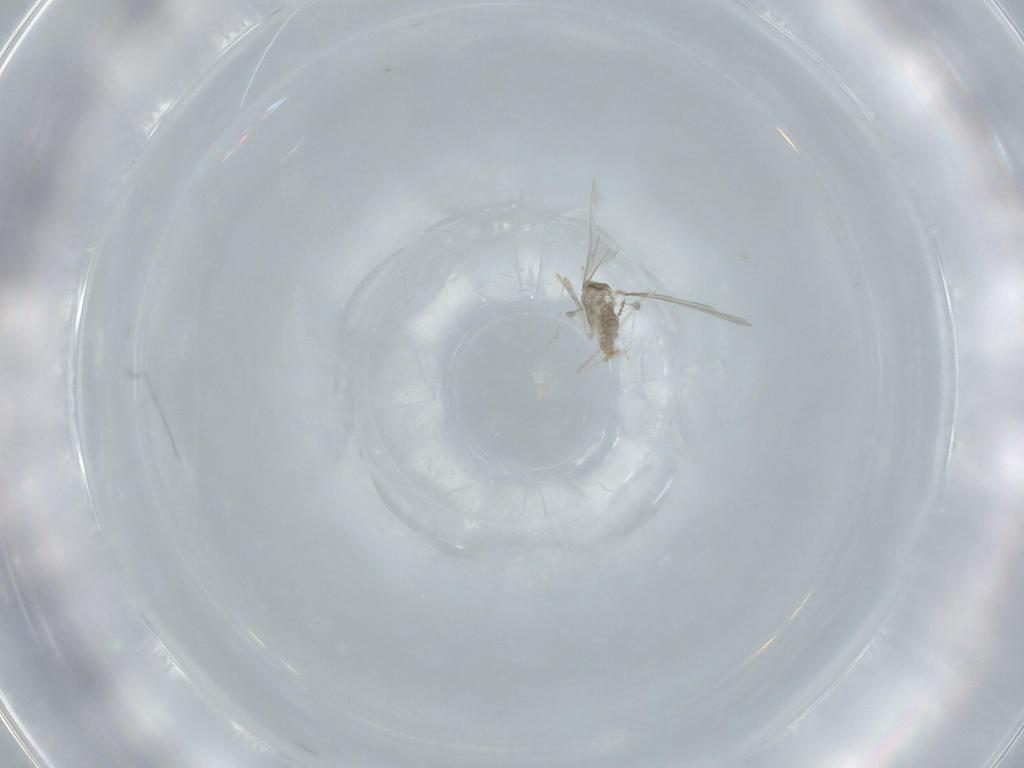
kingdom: Animalia
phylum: Arthropoda
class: Insecta
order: Diptera
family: Cecidomyiidae
